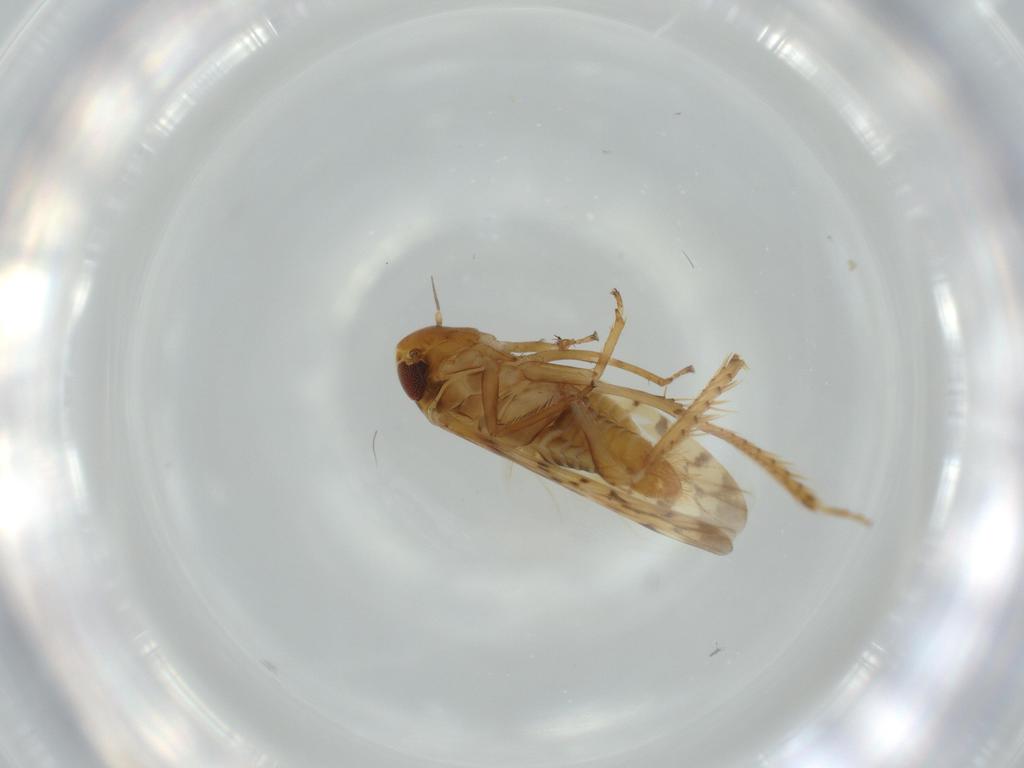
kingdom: Animalia
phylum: Arthropoda
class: Insecta
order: Hemiptera
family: Cicadellidae
